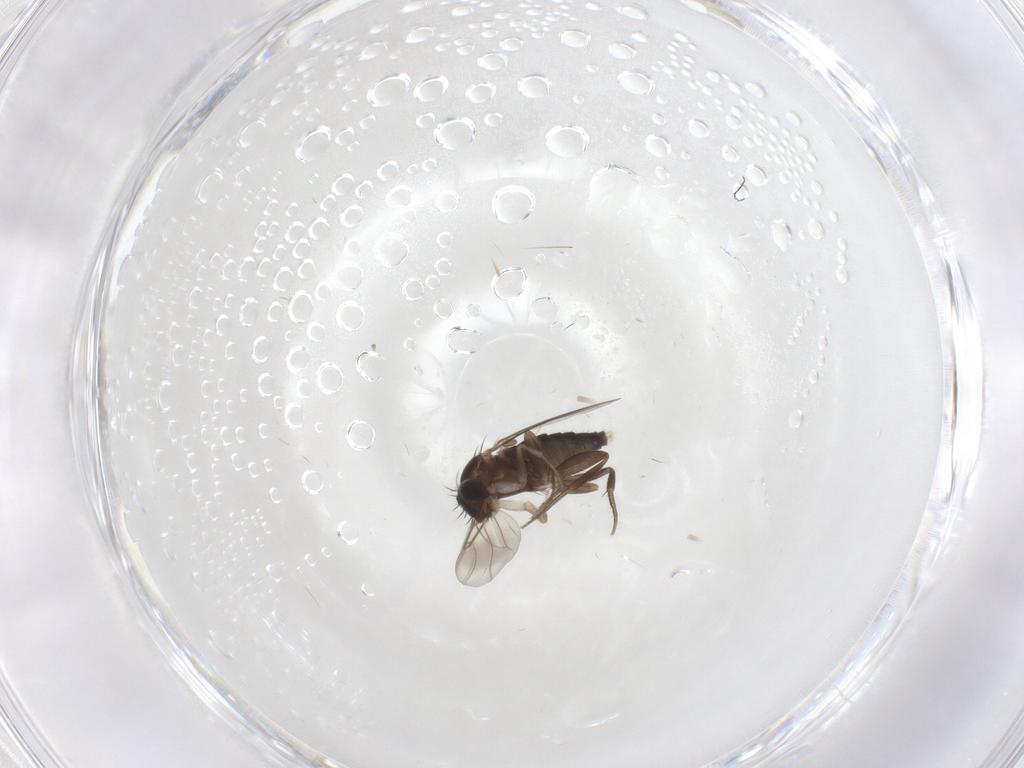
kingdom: Animalia
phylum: Arthropoda
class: Insecta
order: Diptera
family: Phoridae
